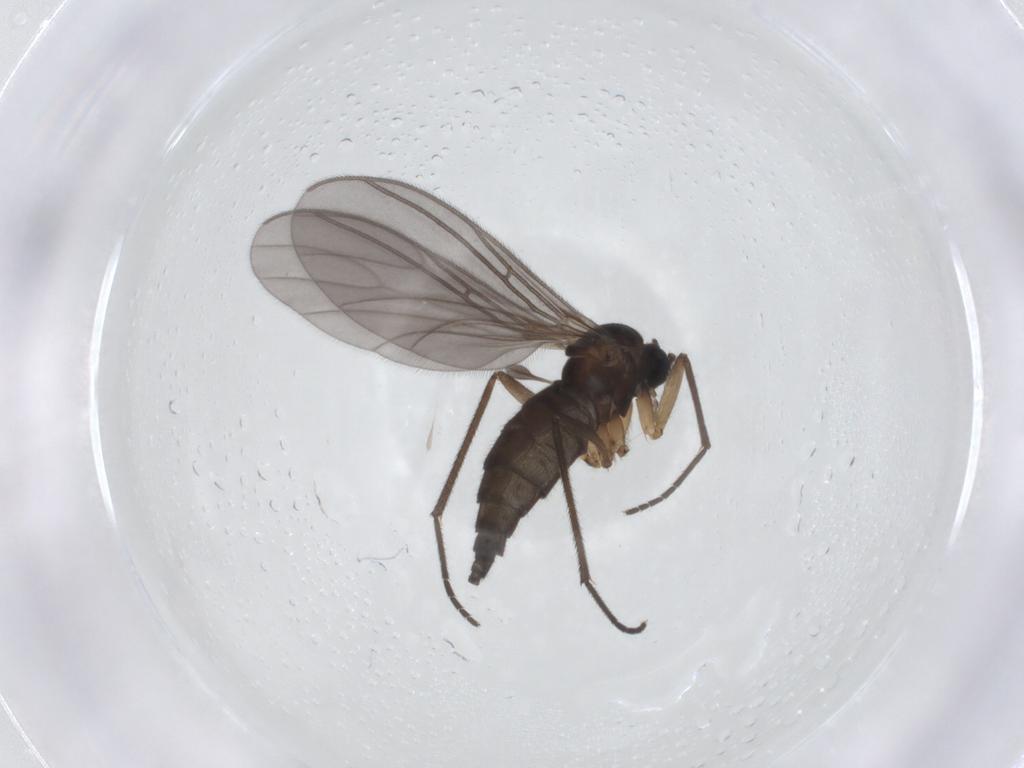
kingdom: Animalia
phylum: Arthropoda
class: Insecta
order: Diptera
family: Sciaridae
